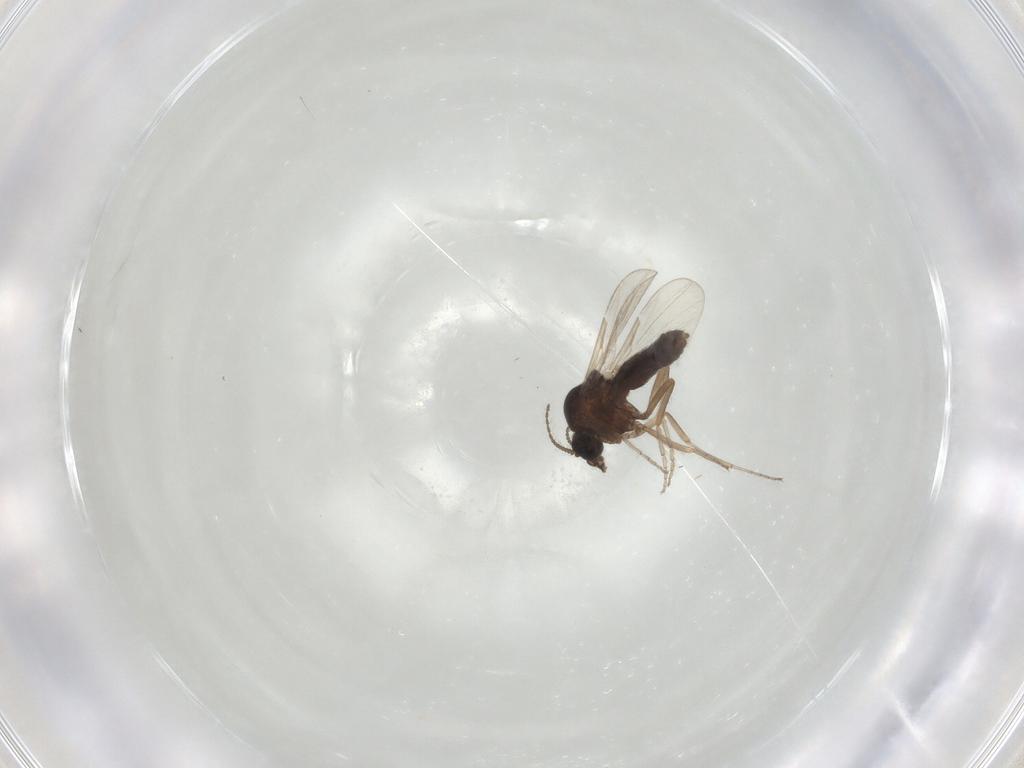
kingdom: Animalia
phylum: Arthropoda
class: Insecta
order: Diptera
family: Ceratopogonidae
